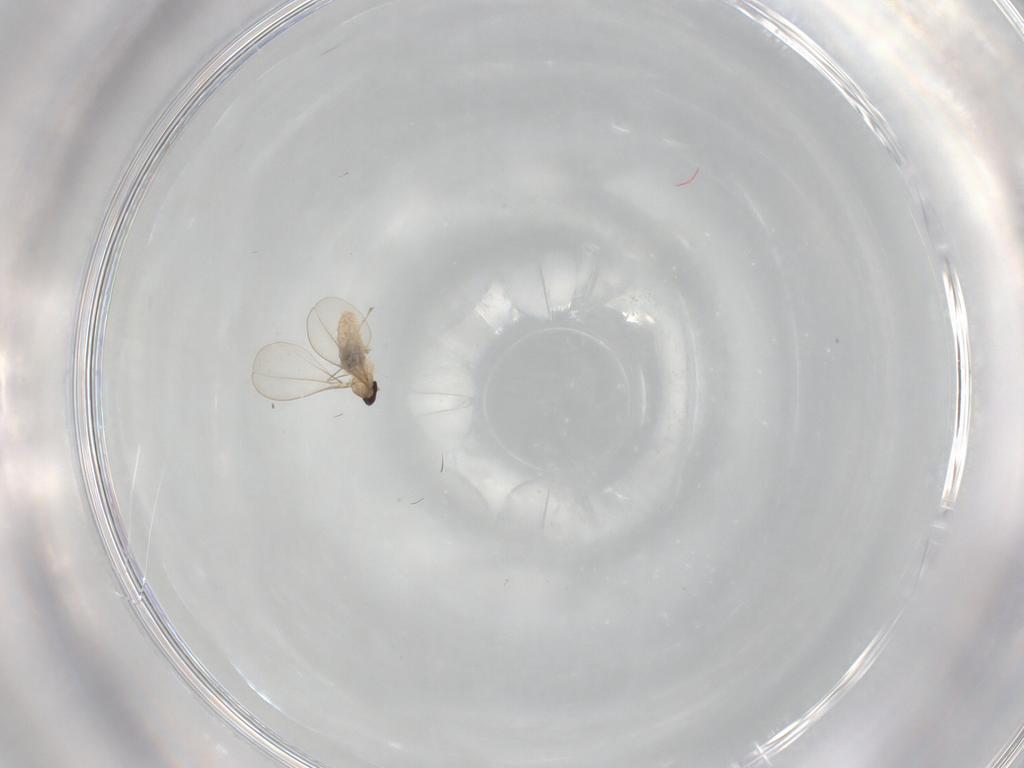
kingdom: Animalia
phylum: Arthropoda
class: Insecta
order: Diptera
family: Cecidomyiidae
